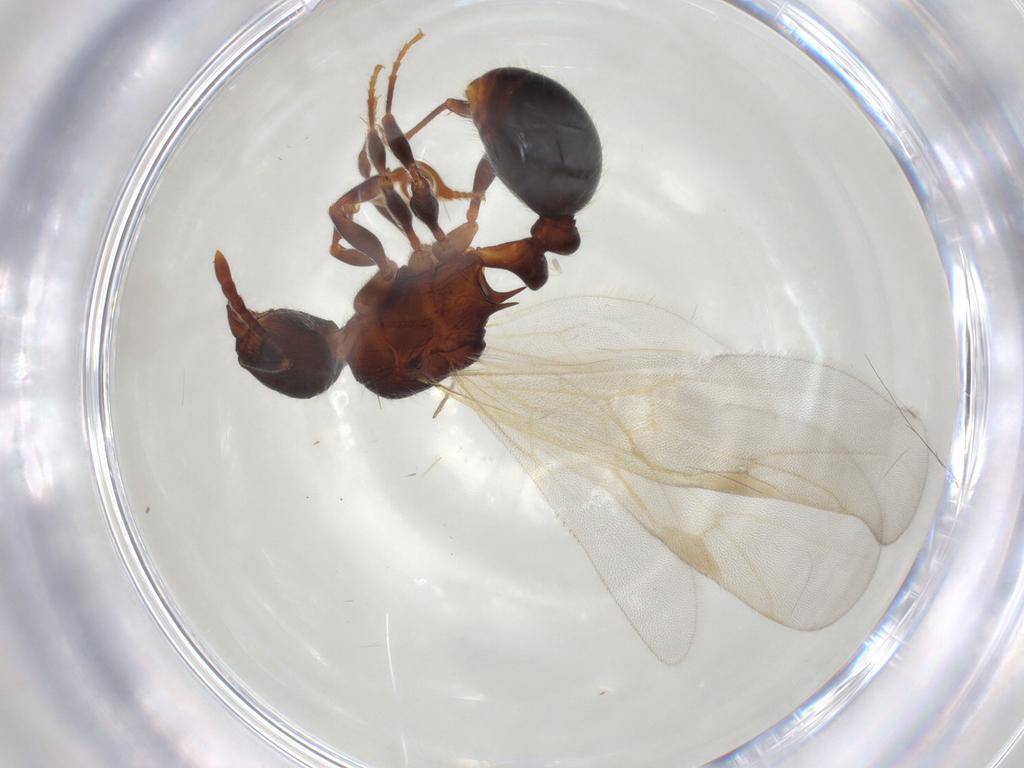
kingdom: Animalia
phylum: Arthropoda
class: Insecta
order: Hymenoptera
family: Formicidae
